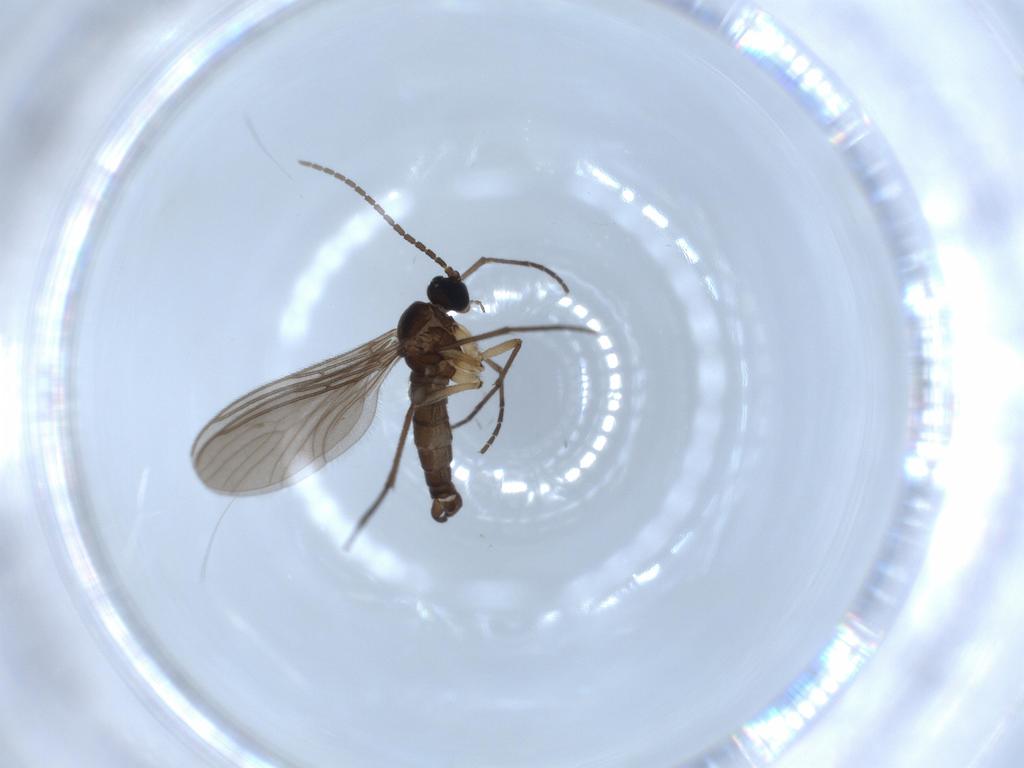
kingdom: Animalia
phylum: Arthropoda
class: Insecta
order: Diptera
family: Sciaridae
